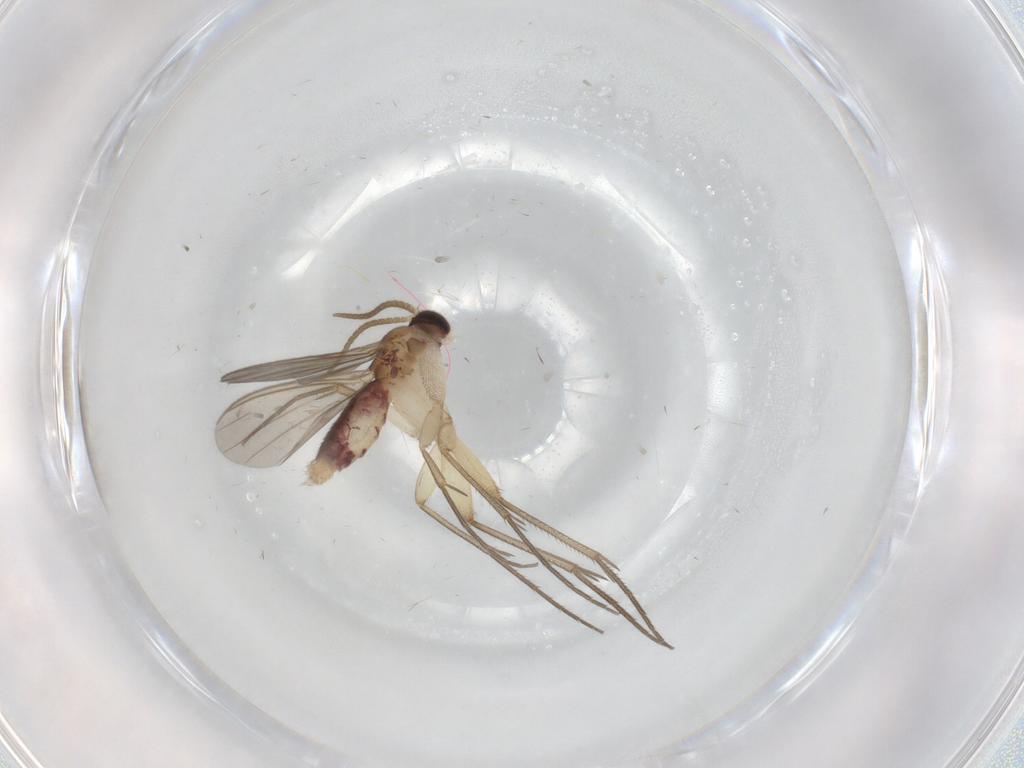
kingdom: Animalia
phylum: Arthropoda
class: Insecta
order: Diptera
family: Mycetophilidae
